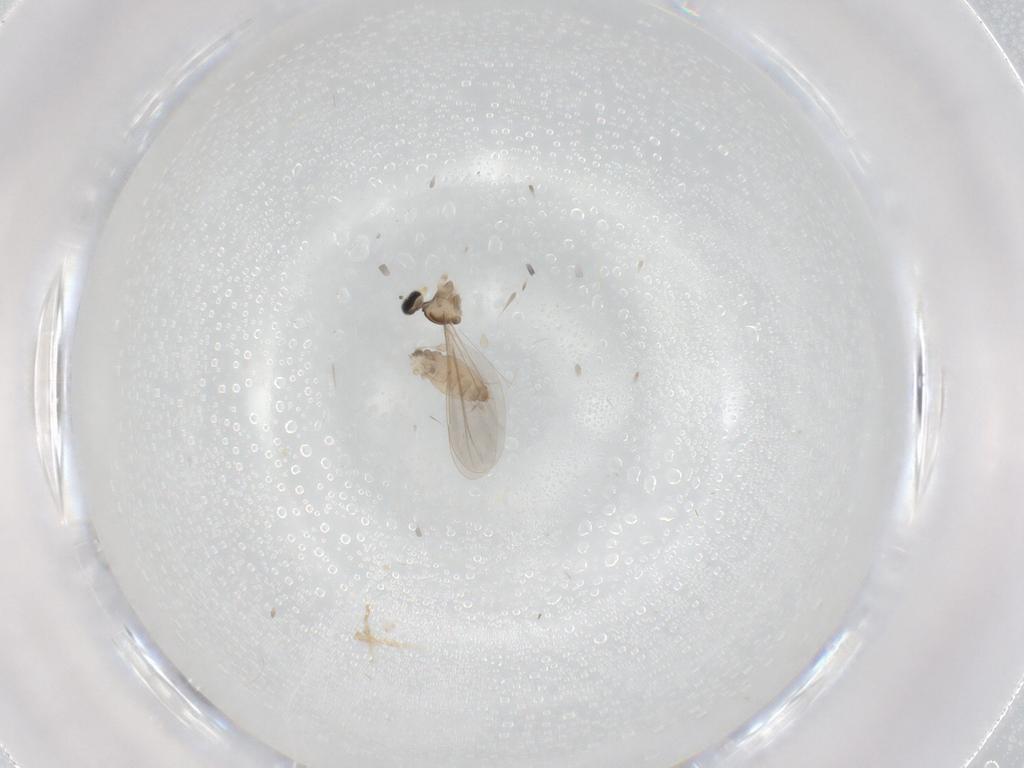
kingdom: Animalia
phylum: Arthropoda
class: Insecta
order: Diptera
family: Cecidomyiidae
